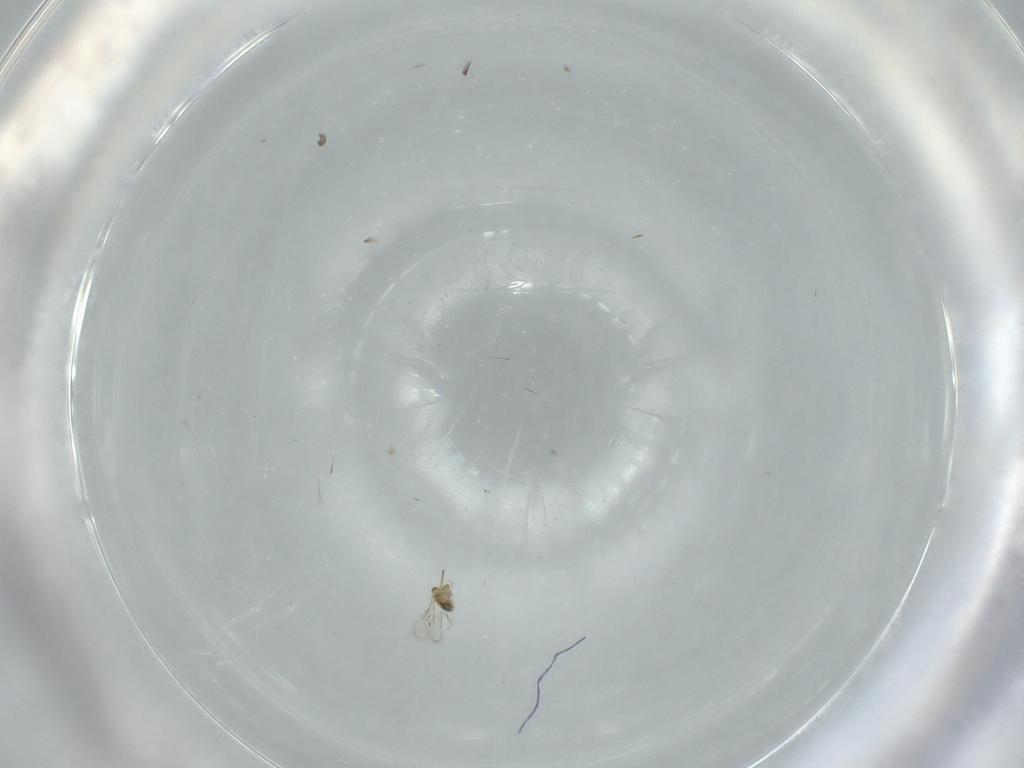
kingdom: Animalia
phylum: Arthropoda
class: Insecta
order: Hymenoptera
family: Aphelinidae
